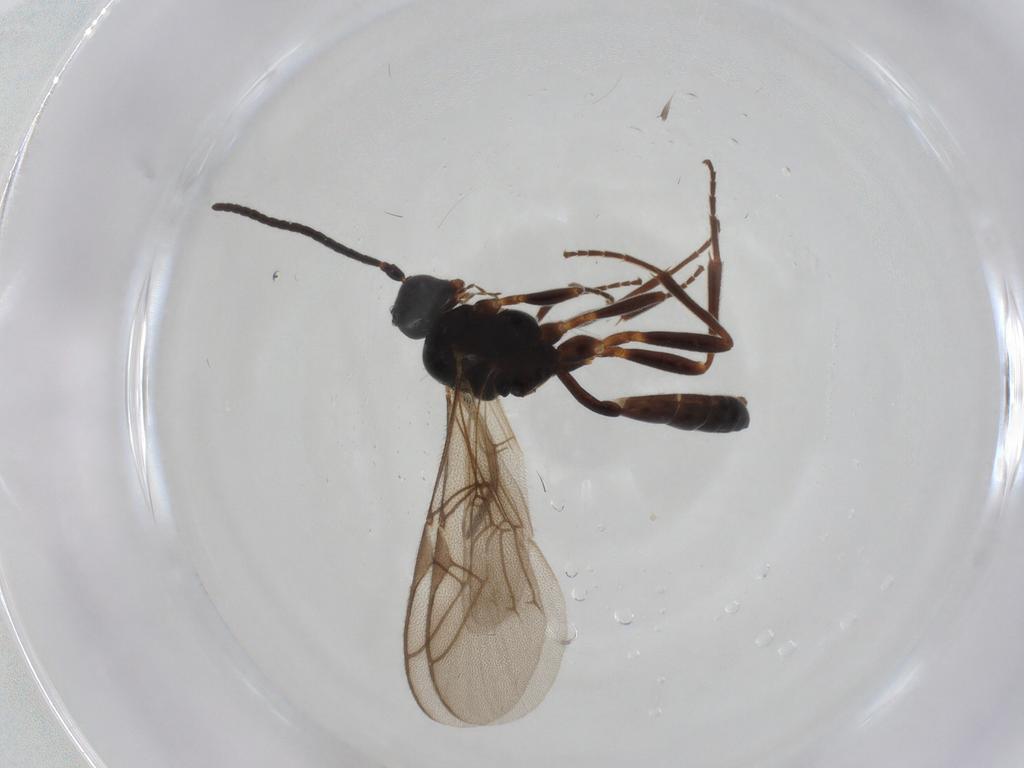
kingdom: Animalia
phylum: Arthropoda
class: Insecta
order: Hymenoptera
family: Ichneumonidae
